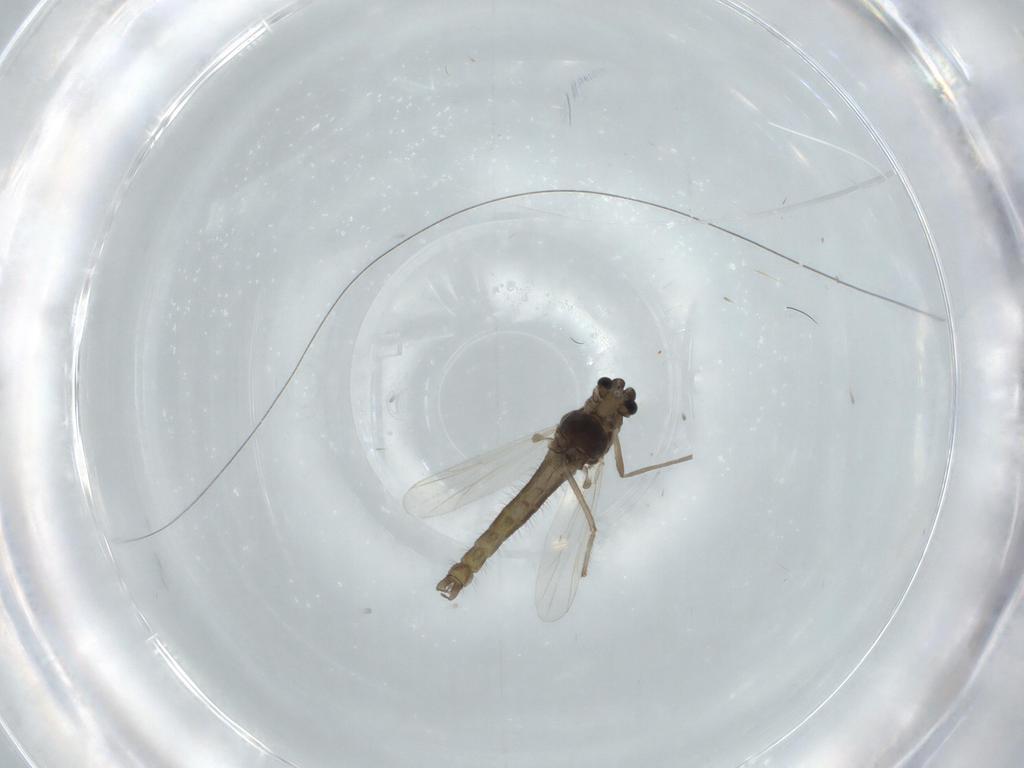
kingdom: Animalia
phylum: Arthropoda
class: Insecta
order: Diptera
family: Chironomidae
